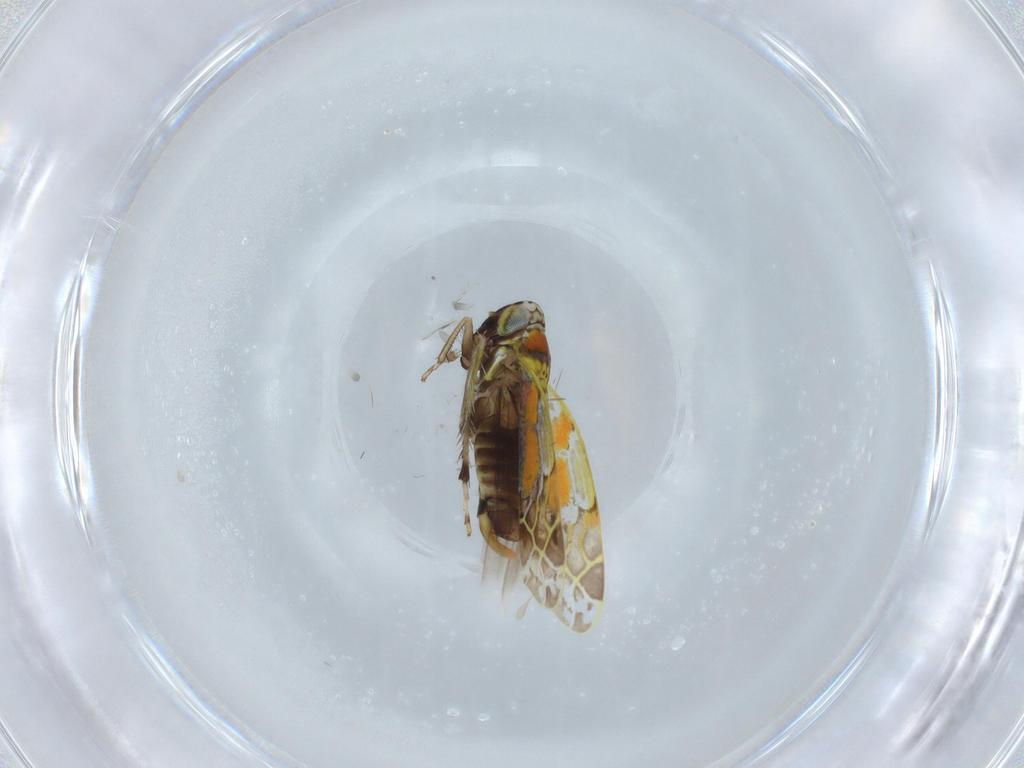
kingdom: Animalia
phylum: Arthropoda
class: Insecta
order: Hemiptera
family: Cicadellidae
